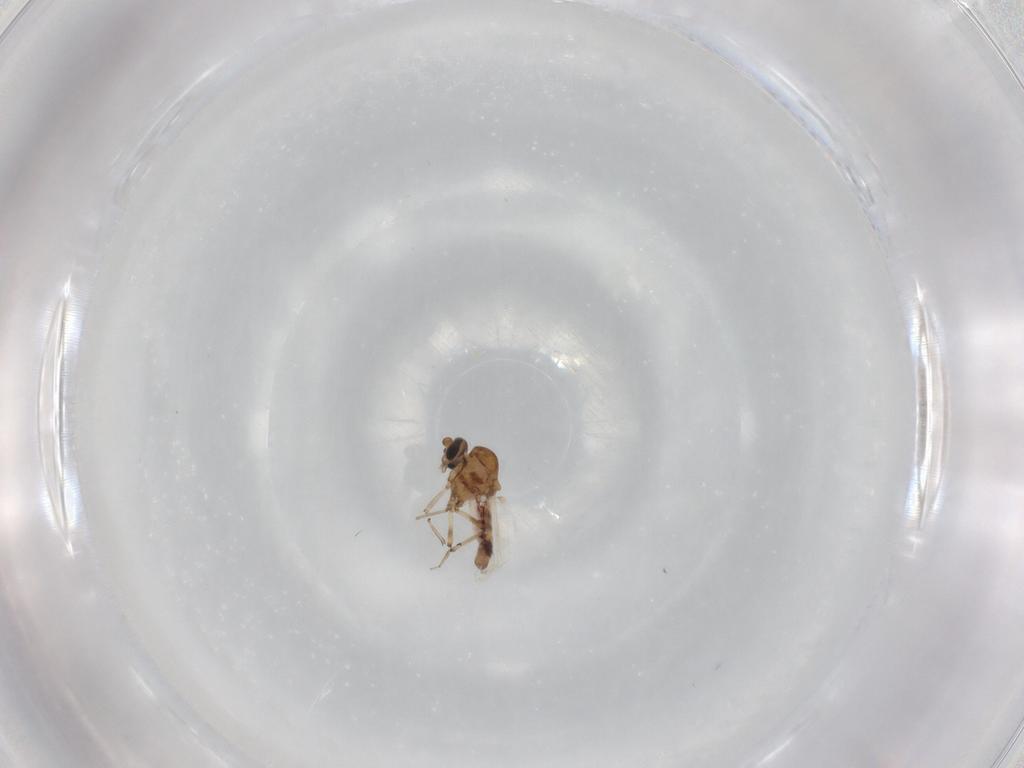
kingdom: Animalia
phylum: Arthropoda
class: Insecta
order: Diptera
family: Ceratopogonidae
